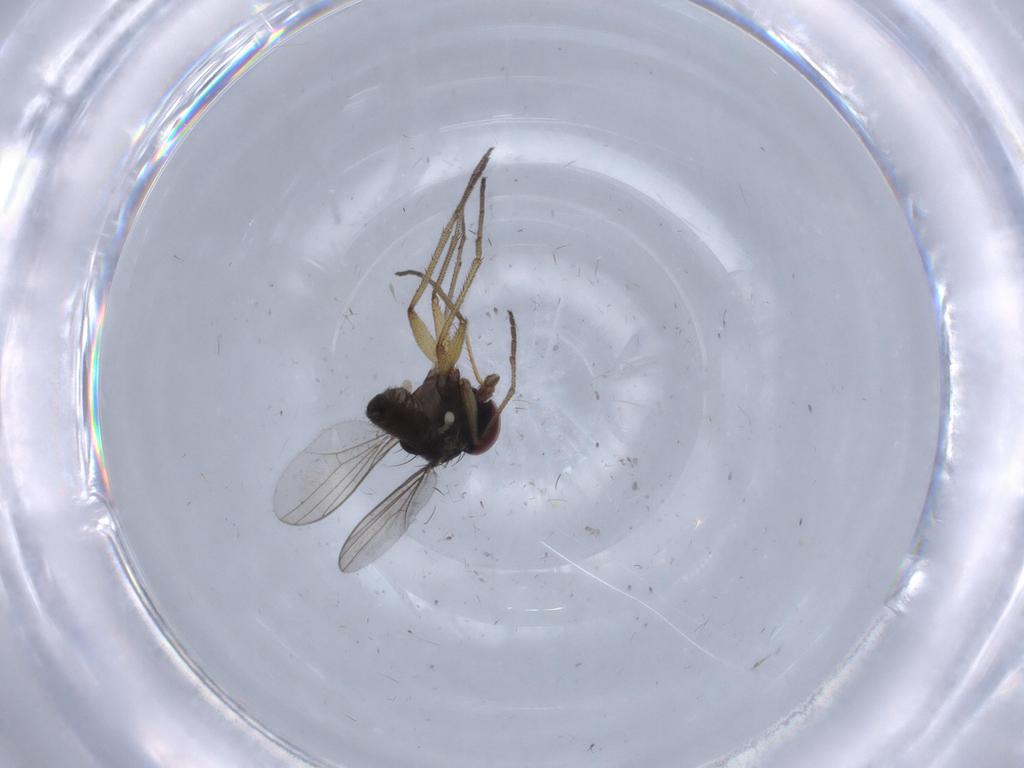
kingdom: Animalia
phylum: Arthropoda
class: Insecta
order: Diptera
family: Dolichopodidae
